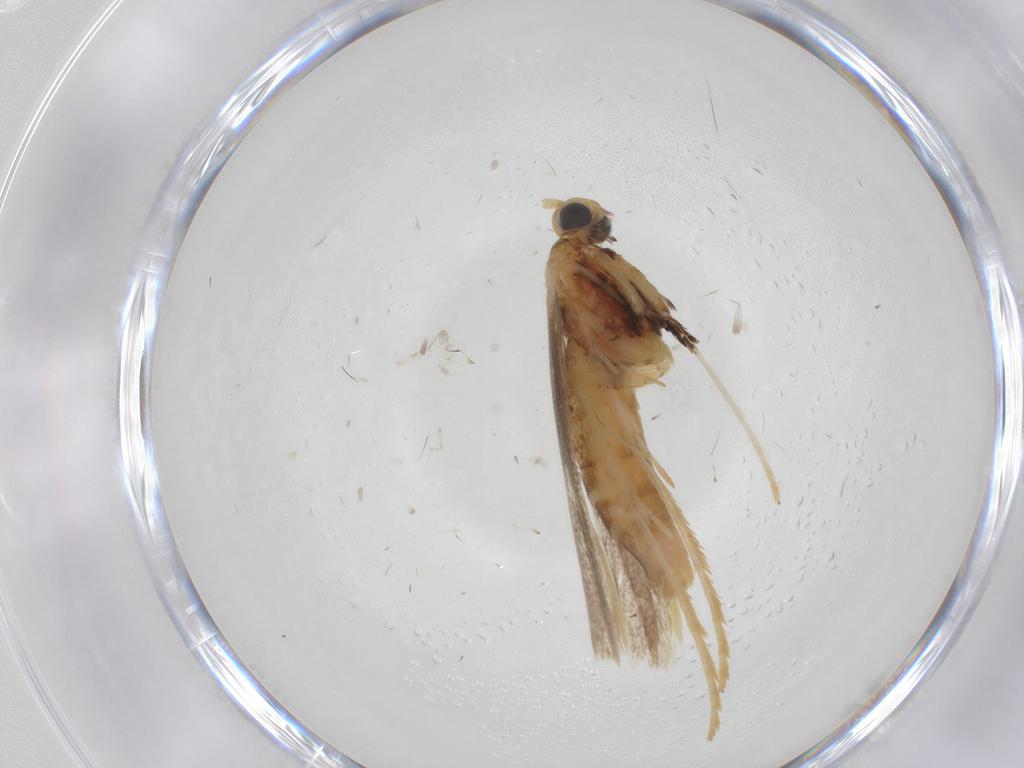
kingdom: Animalia
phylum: Arthropoda
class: Insecta
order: Lepidoptera
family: Gracillariidae
